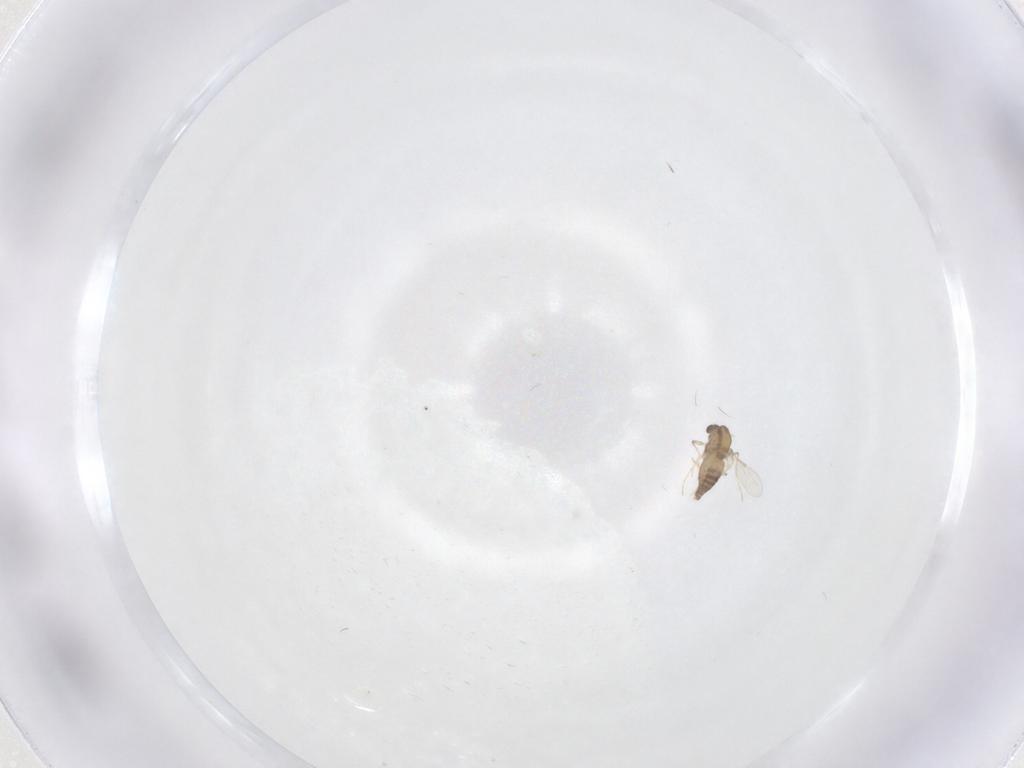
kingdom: Animalia
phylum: Arthropoda
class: Insecta
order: Diptera
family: Chironomidae
